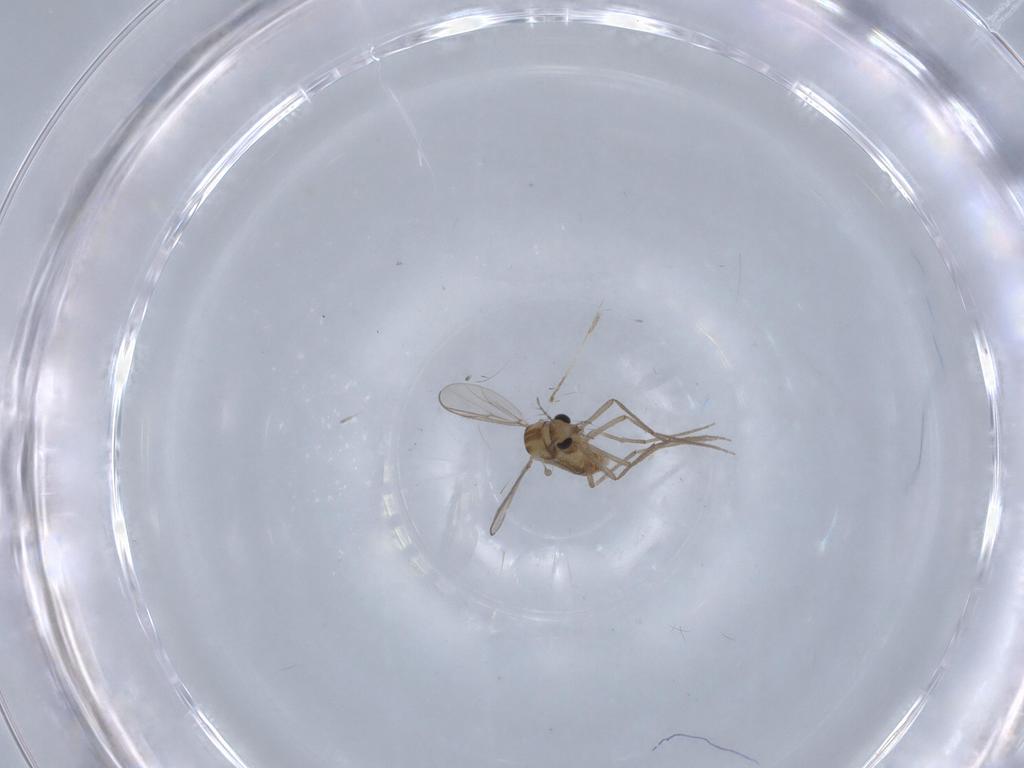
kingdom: Animalia
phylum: Arthropoda
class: Insecta
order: Diptera
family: Chironomidae
